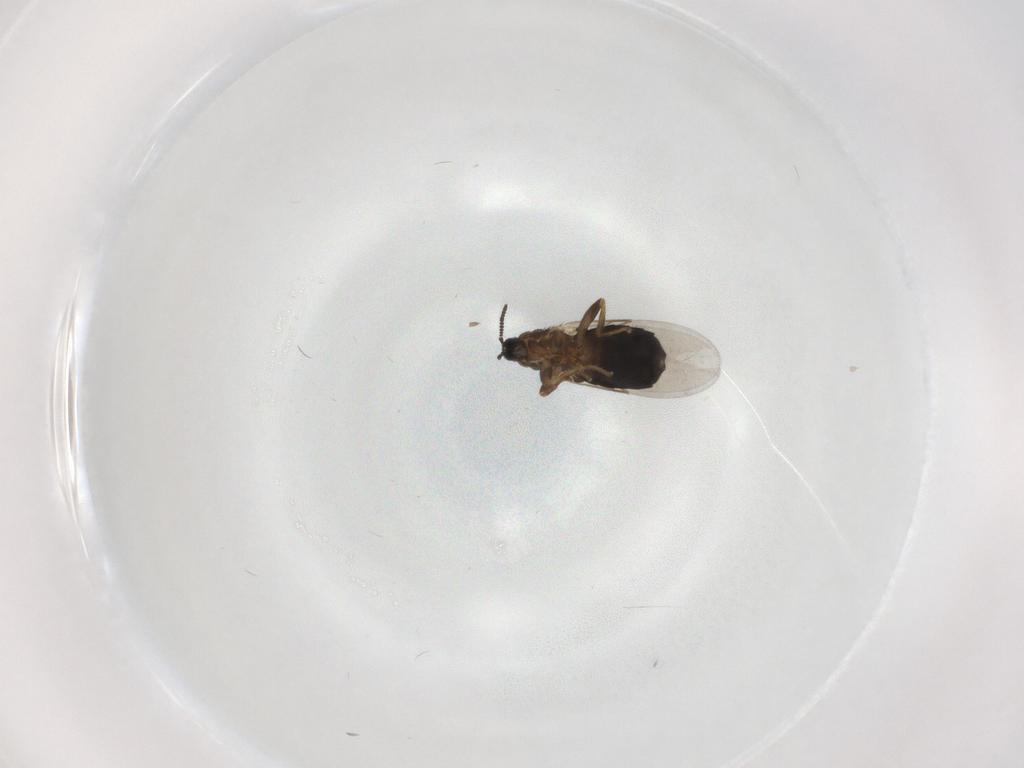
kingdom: Animalia
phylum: Arthropoda
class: Insecta
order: Diptera
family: Scatopsidae
